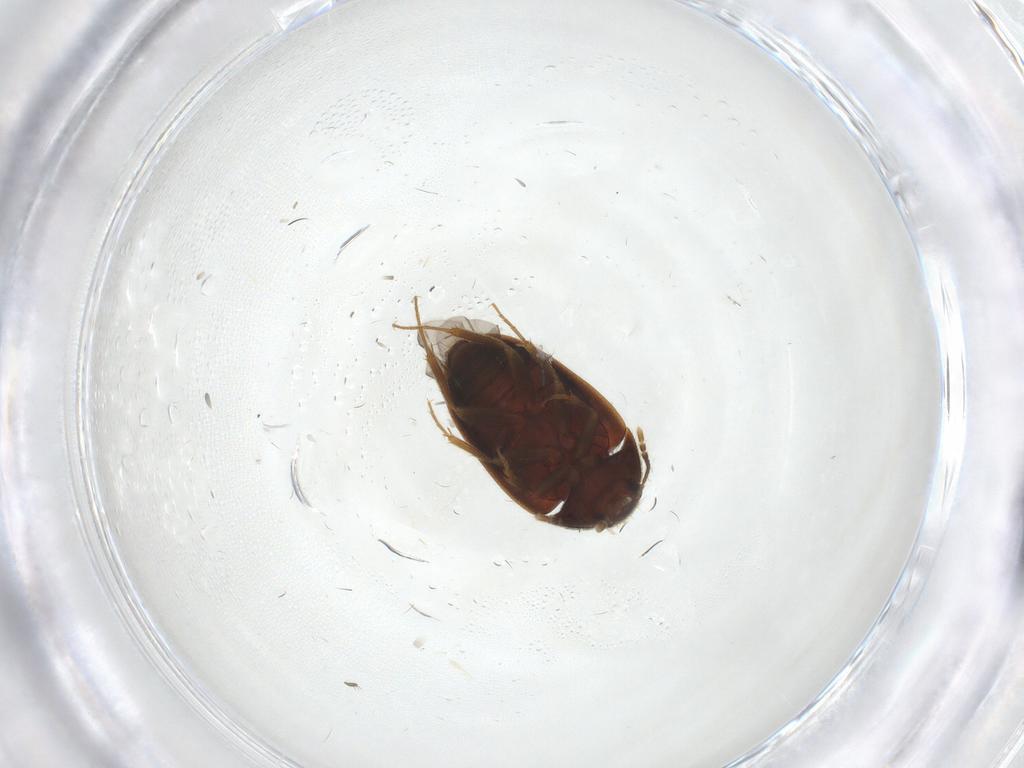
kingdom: Animalia
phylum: Arthropoda
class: Insecta
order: Coleoptera
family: Mycetophagidae
